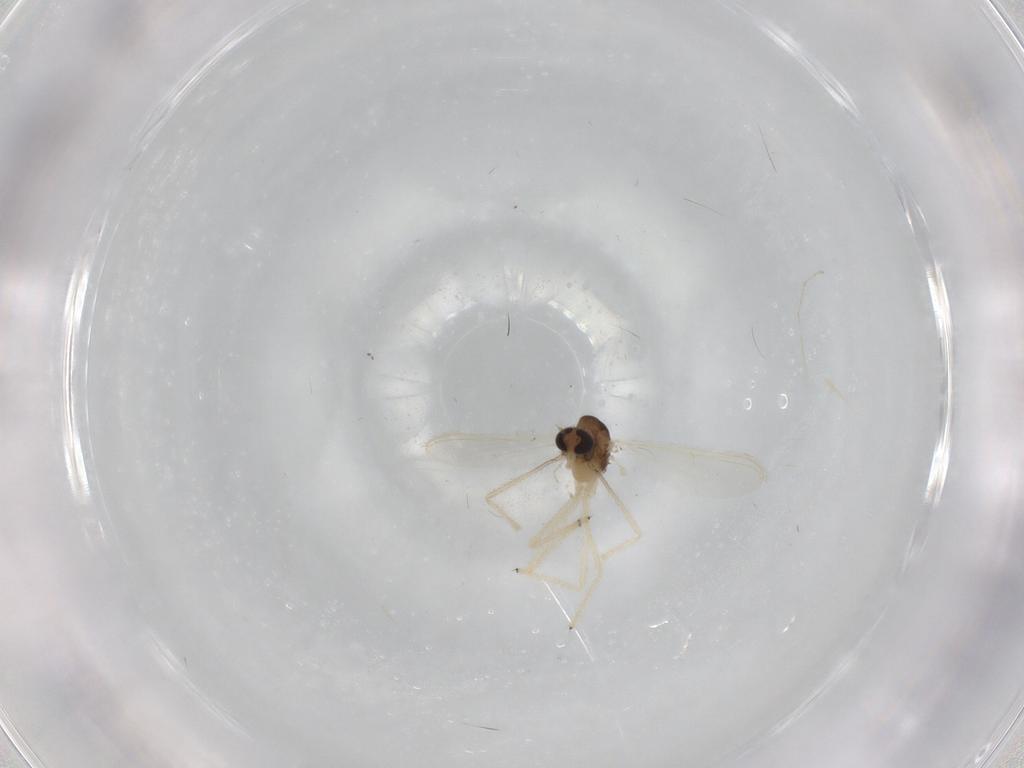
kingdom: Animalia
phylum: Arthropoda
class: Insecta
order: Diptera
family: Chironomidae
